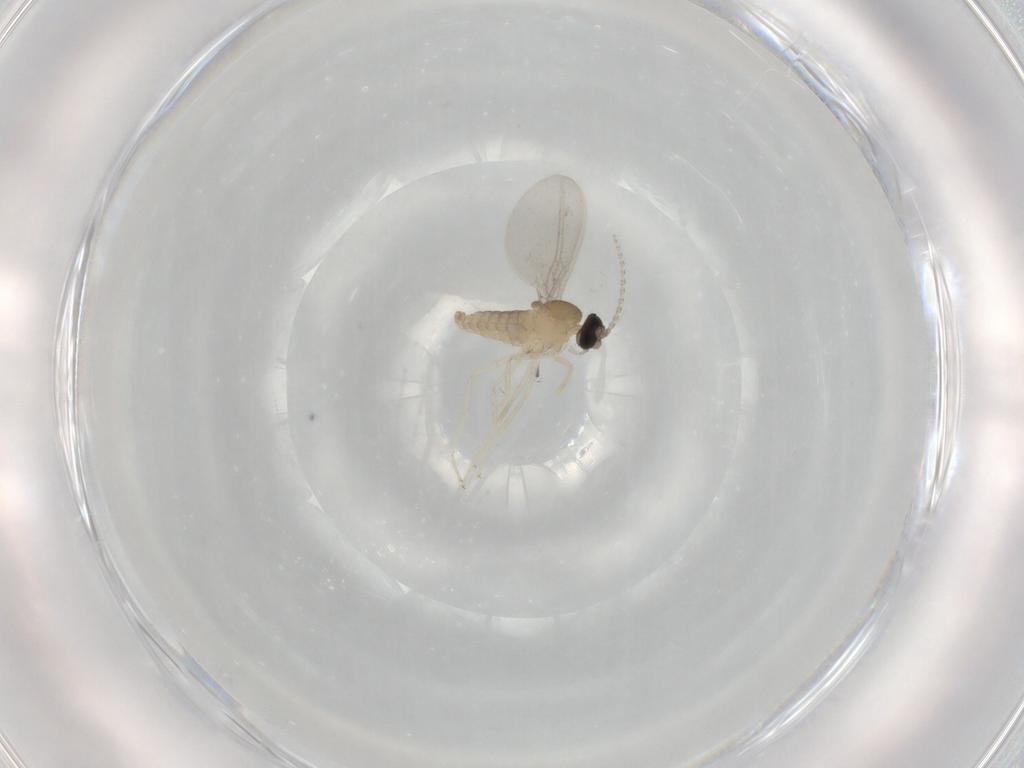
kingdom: Animalia
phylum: Arthropoda
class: Insecta
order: Diptera
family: Cecidomyiidae
